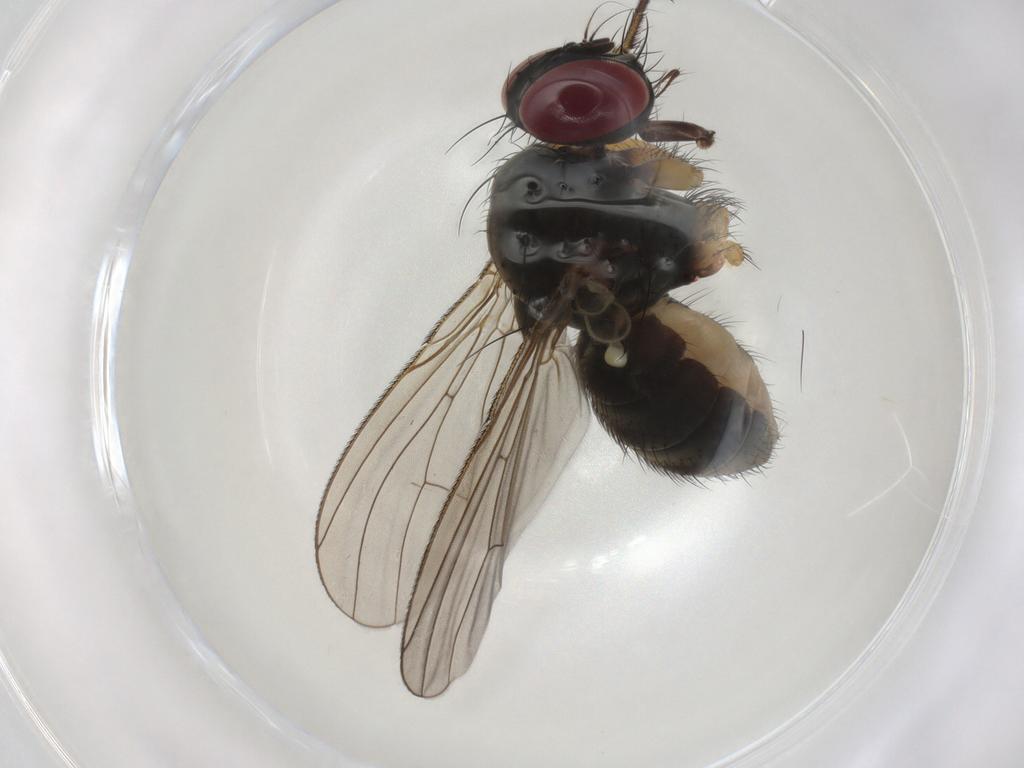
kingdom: Animalia
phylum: Arthropoda
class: Insecta
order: Diptera
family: Muscidae
